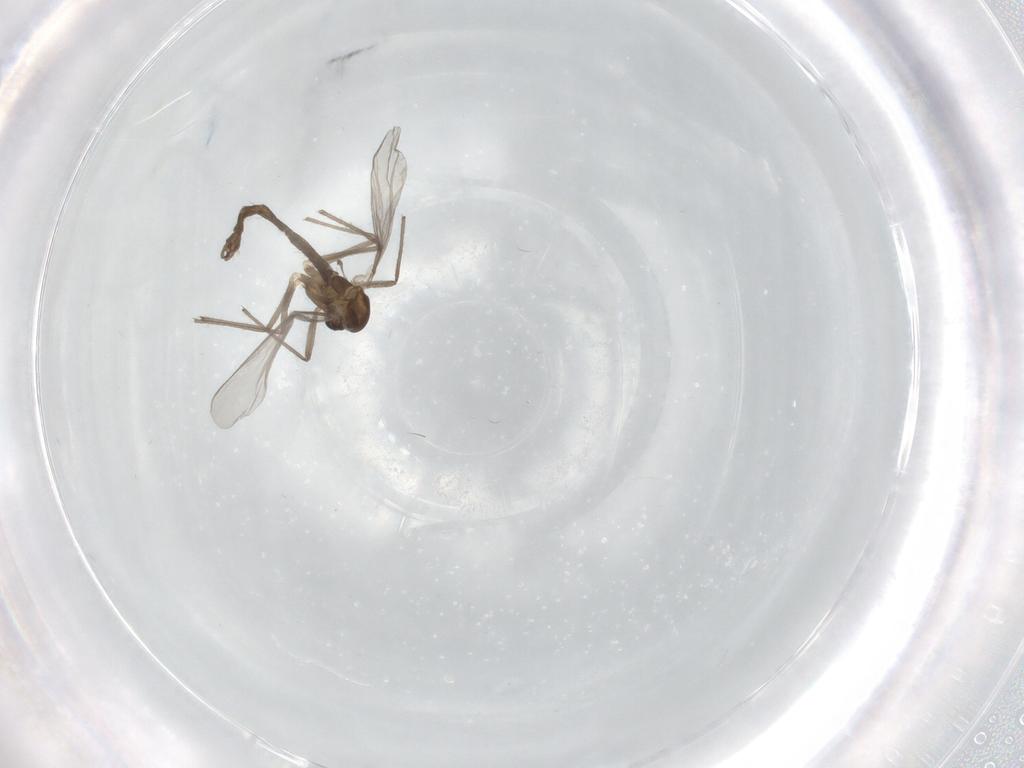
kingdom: Animalia
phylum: Arthropoda
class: Insecta
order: Diptera
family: Chironomidae
